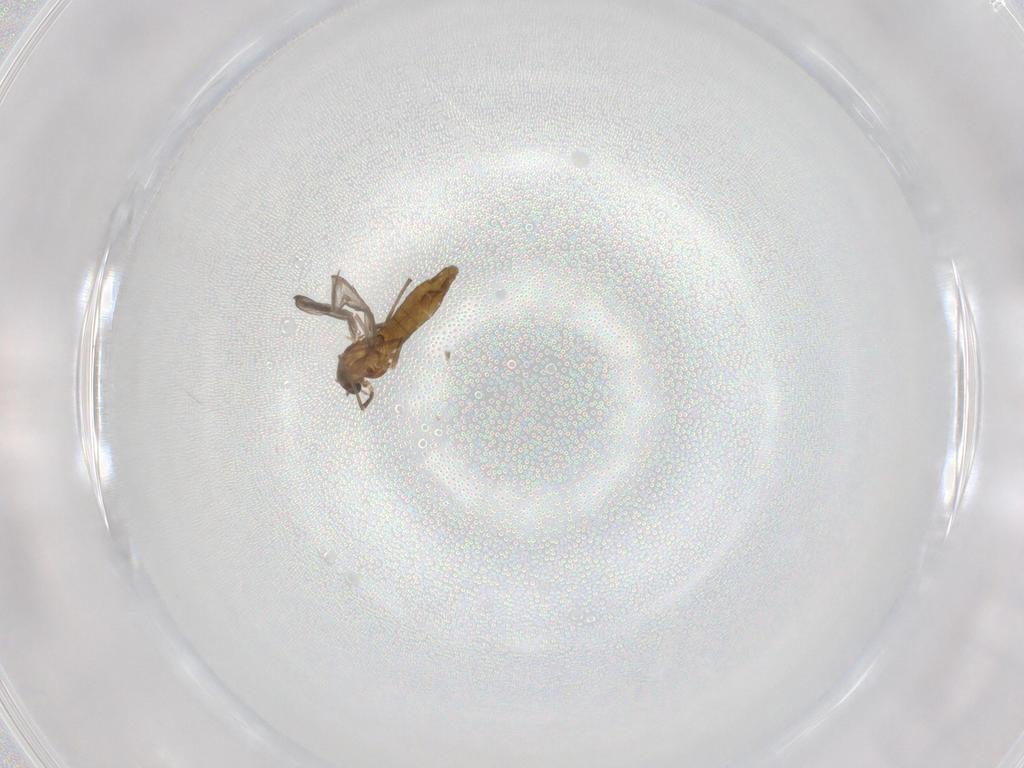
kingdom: Animalia
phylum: Arthropoda
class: Insecta
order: Diptera
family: Chironomidae
